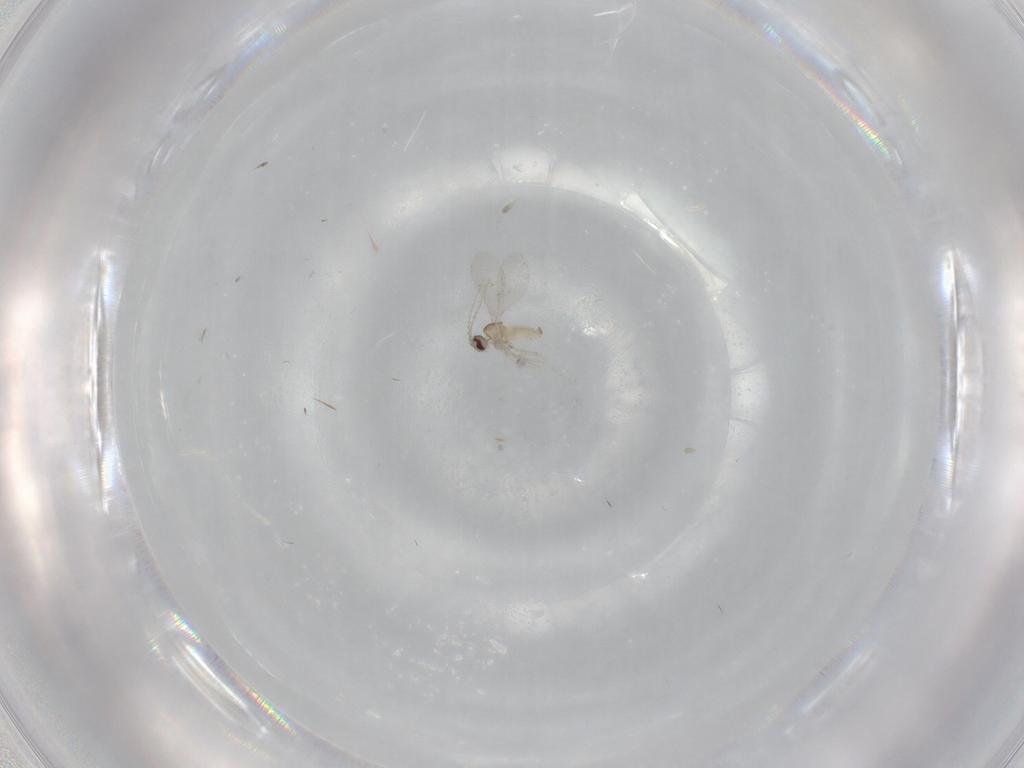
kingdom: Animalia
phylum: Arthropoda
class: Insecta
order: Diptera
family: Cecidomyiidae
